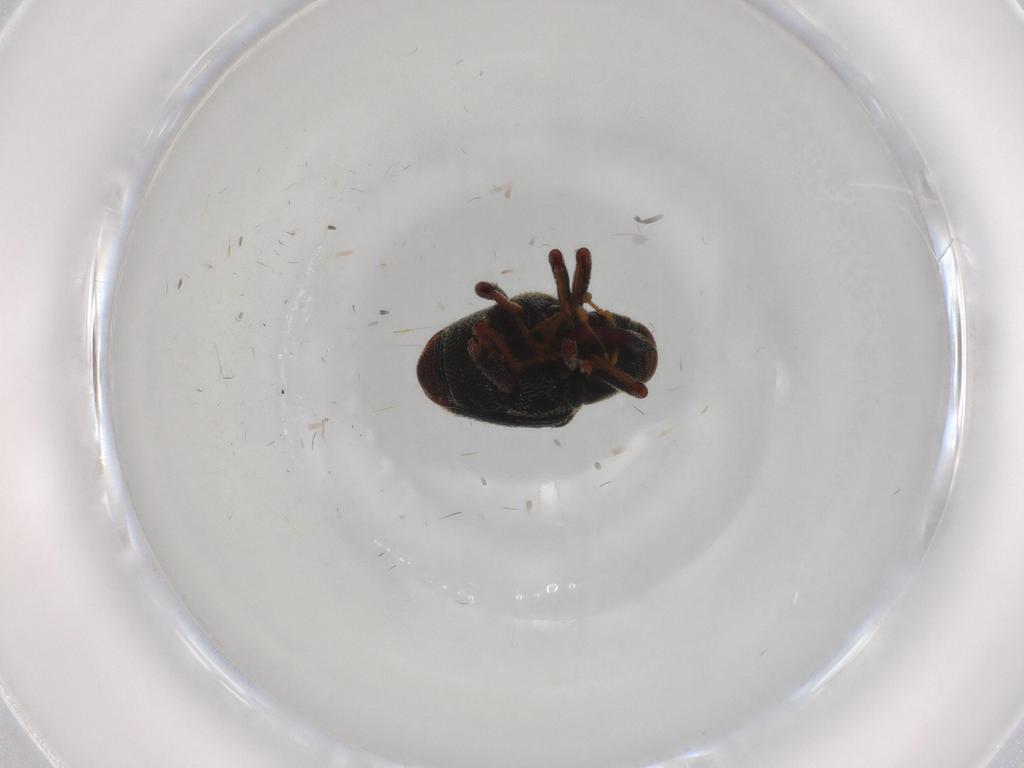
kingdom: Animalia
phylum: Arthropoda
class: Insecta
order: Coleoptera
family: Curculionidae
